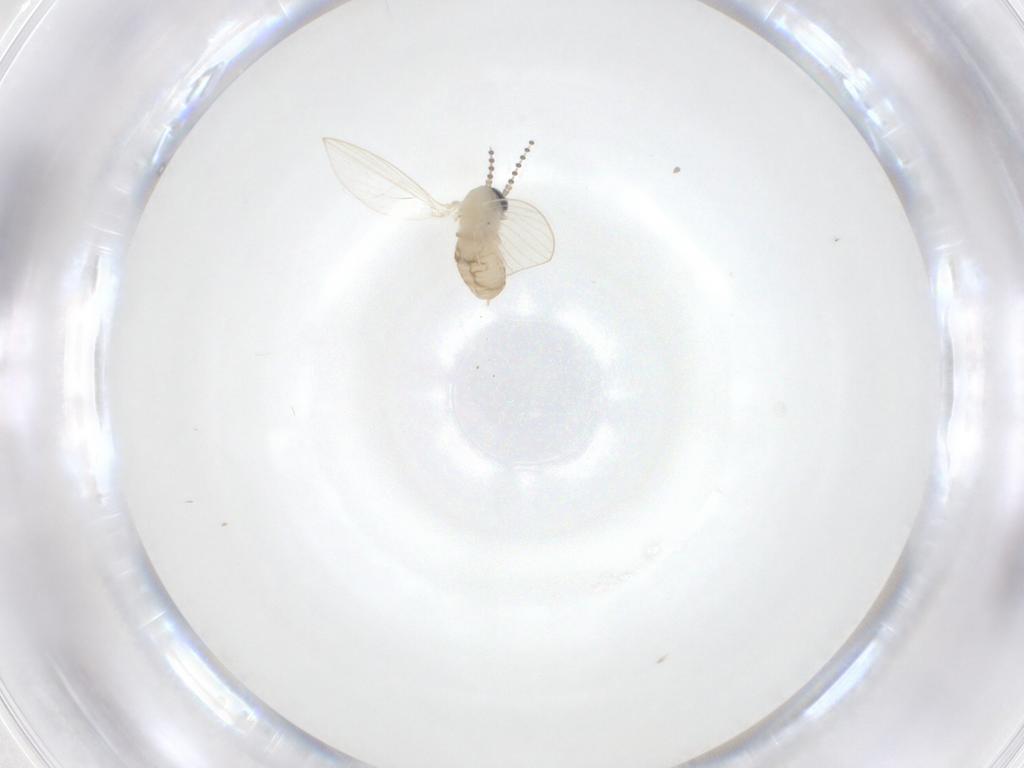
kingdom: Animalia
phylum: Arthropoda
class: Insecta
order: Diptera
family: Psychodidae
